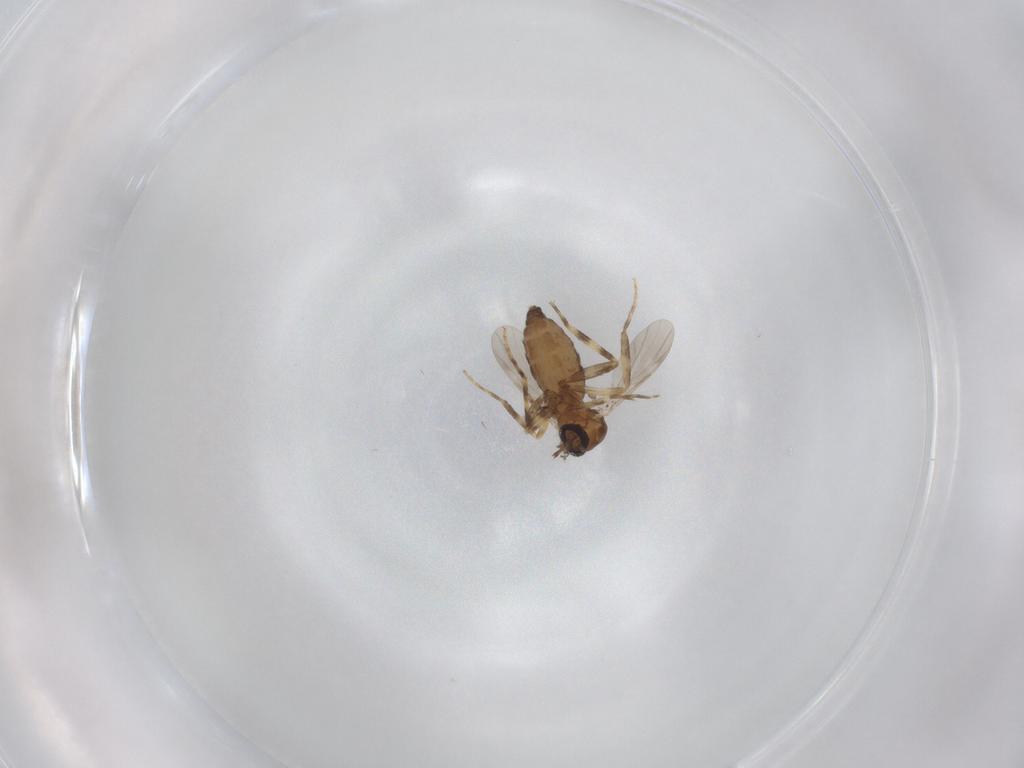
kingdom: Animalia
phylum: Arthropoda
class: Insecta
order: Diptera
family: Ceratopogonidae
